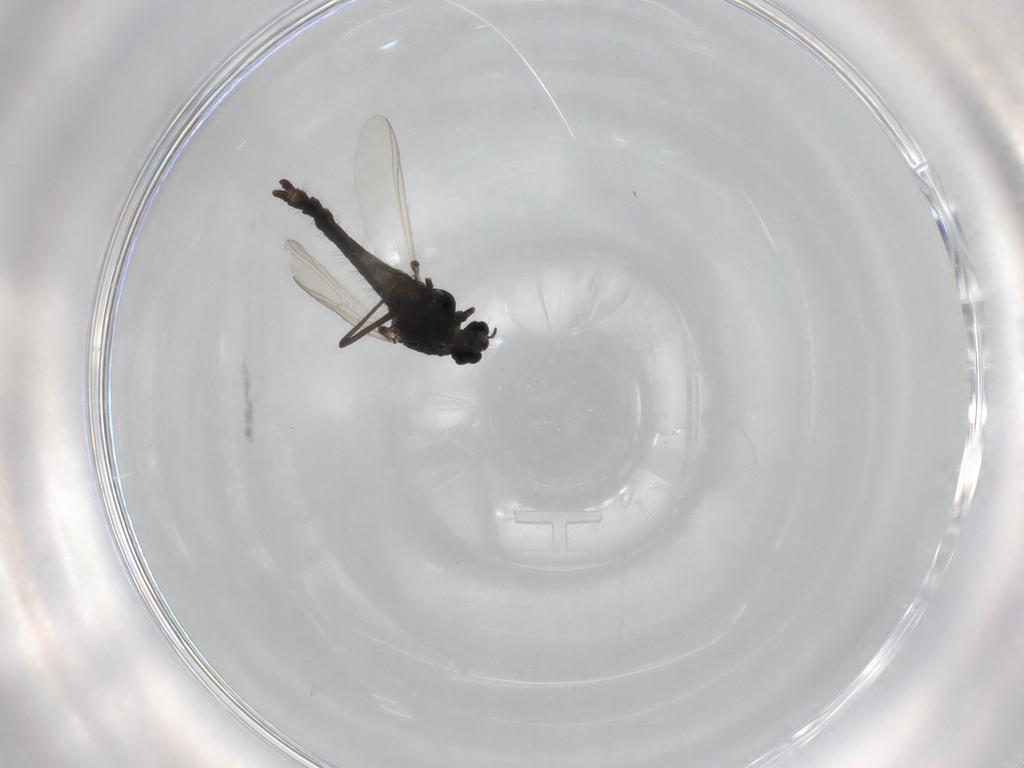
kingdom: Animalia
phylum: Arthropoda
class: Insecta
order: Diptera
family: Chironomidae
